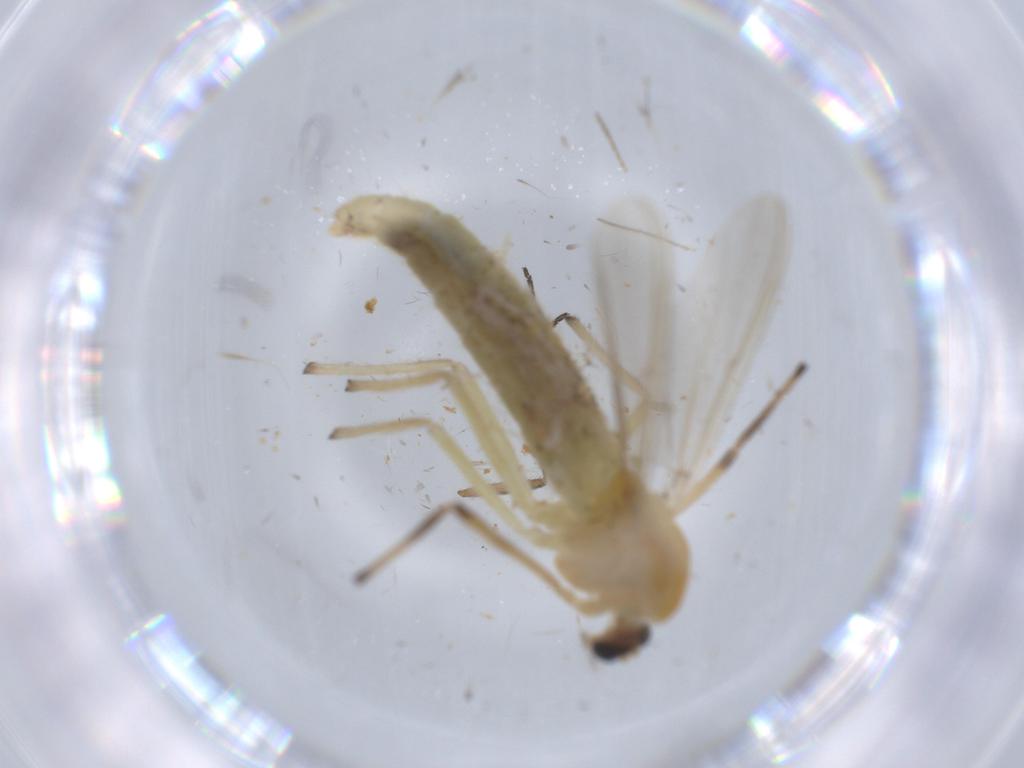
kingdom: Animalia
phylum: Arthropoda
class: Insecta
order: Diptera
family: Chironomidae
